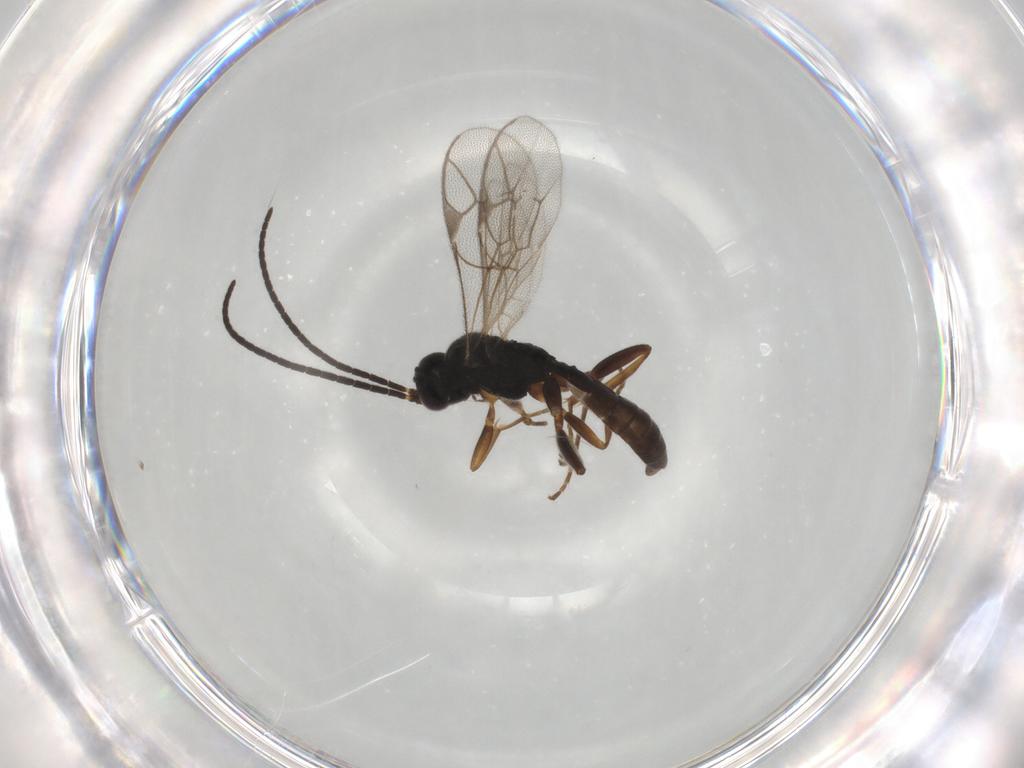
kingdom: Animalia
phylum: Arthropoda
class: Insecta
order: Hymenoptera
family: Ichneumonidae
